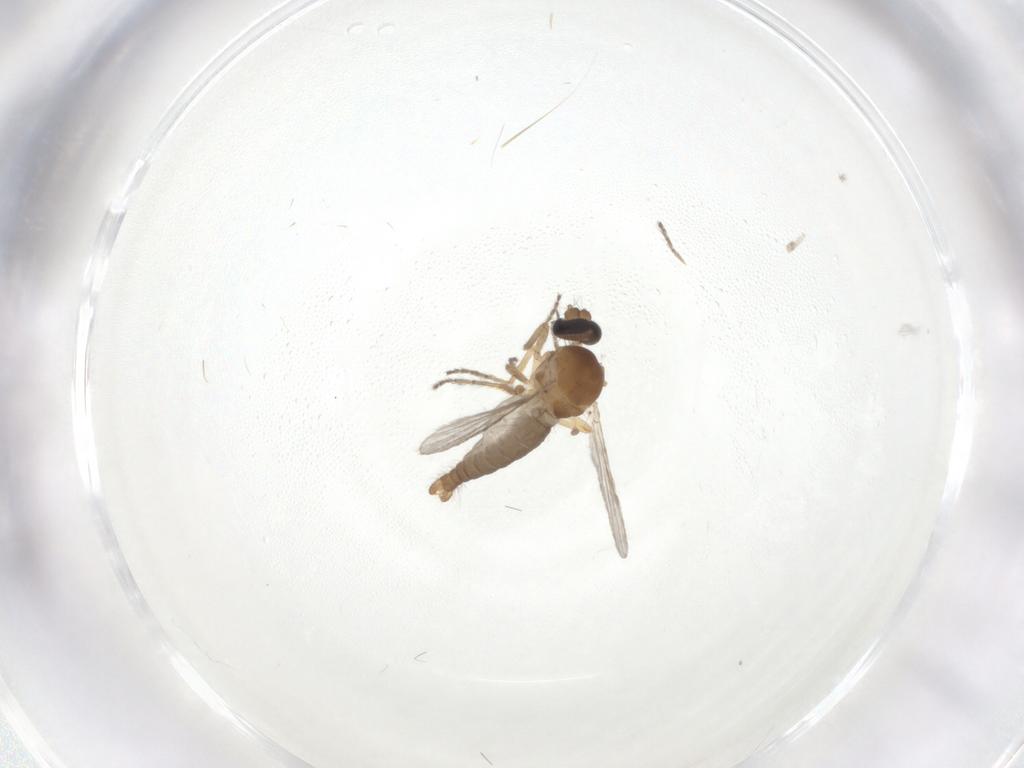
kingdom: Animalia
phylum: Arthropoda
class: Insecta
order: Diptera
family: Ceratopogonidae
